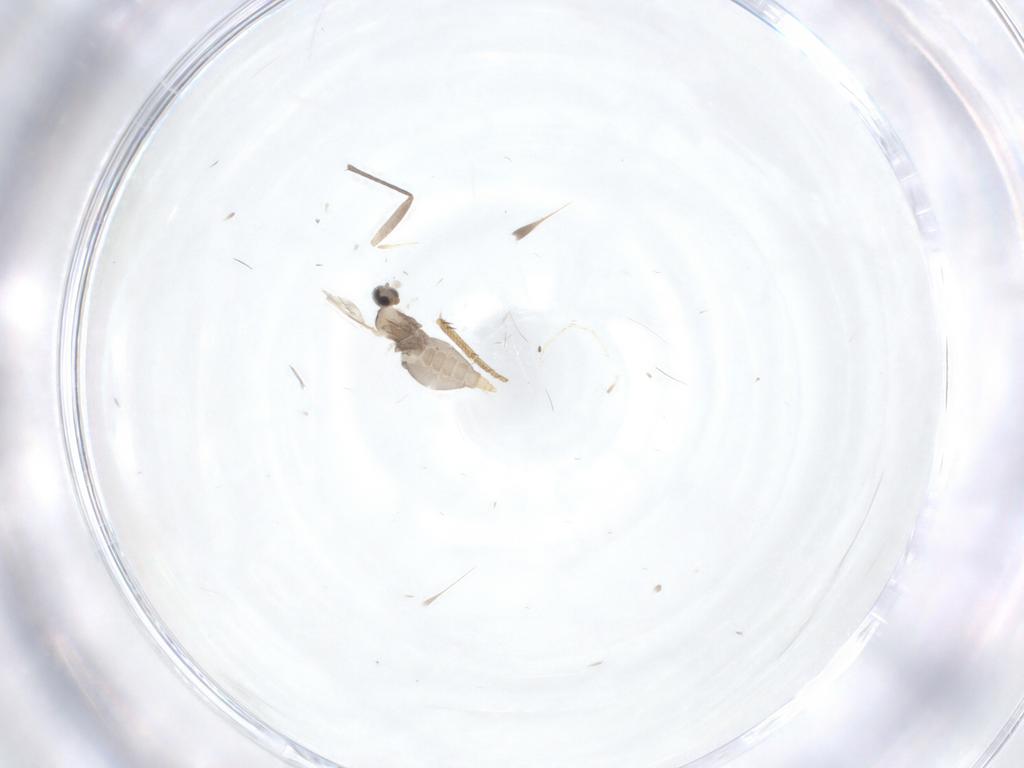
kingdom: Animalia
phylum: Arthropoda
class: Insecta
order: Diptera
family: Cecidomyiidae
